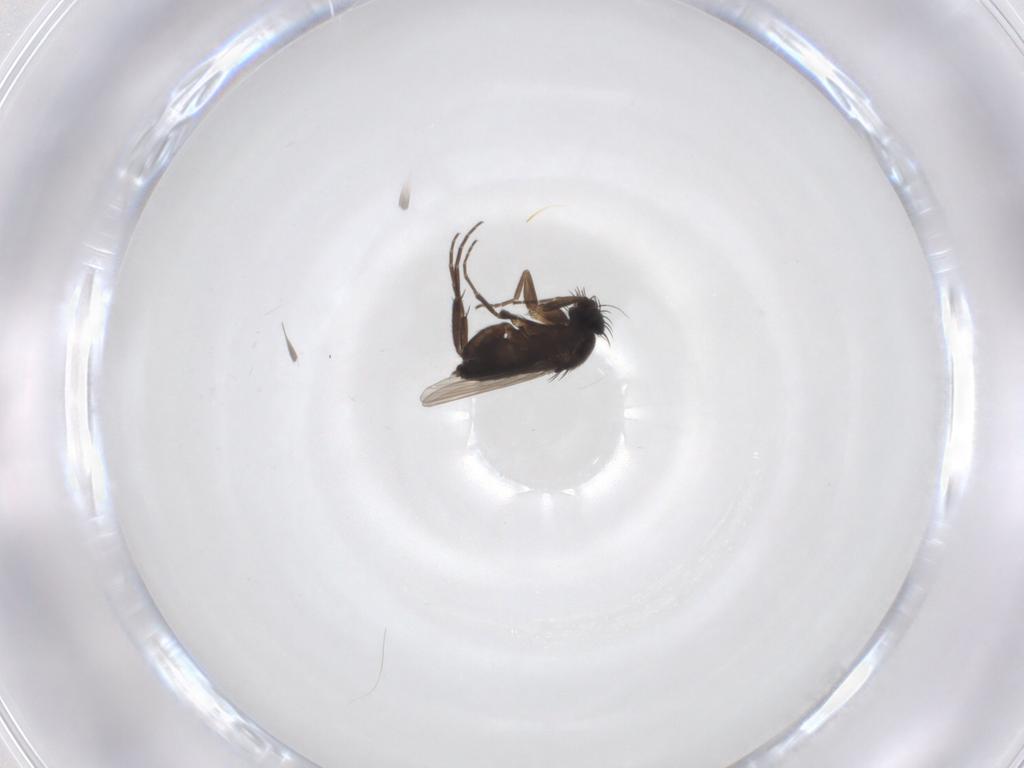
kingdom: Animalia
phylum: Arthropoda
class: Insecta
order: Diptera
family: Phoridae
